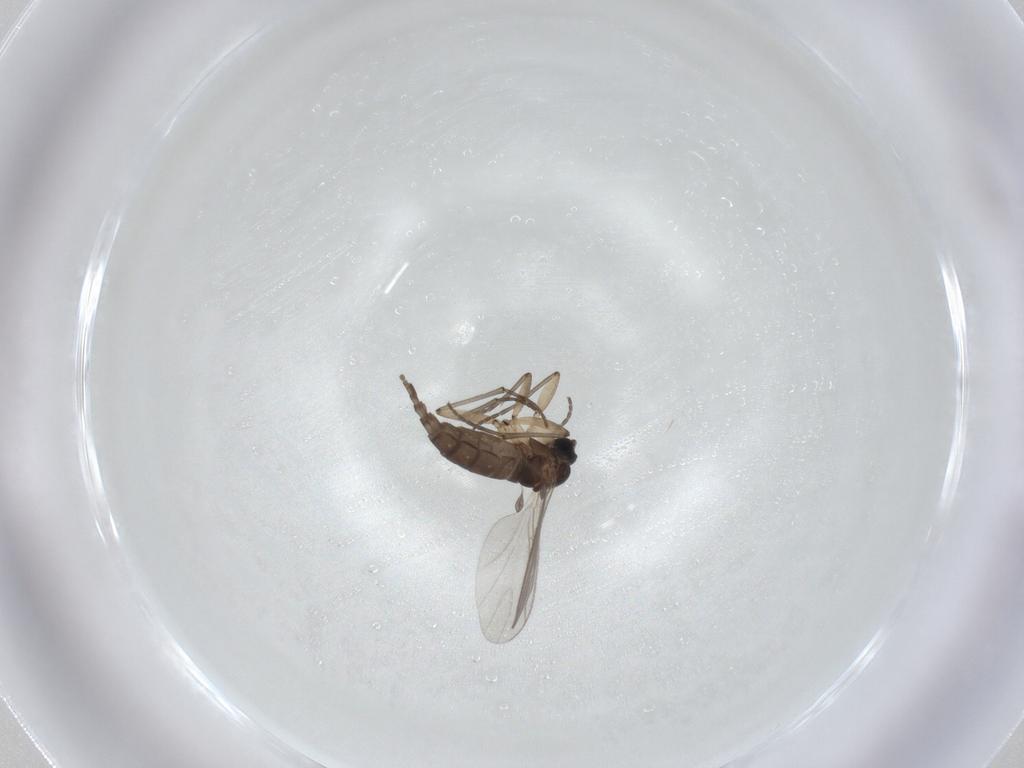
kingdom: Animalia
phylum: Arthropoda
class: Insecta
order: Diptera
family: Sciaridae
